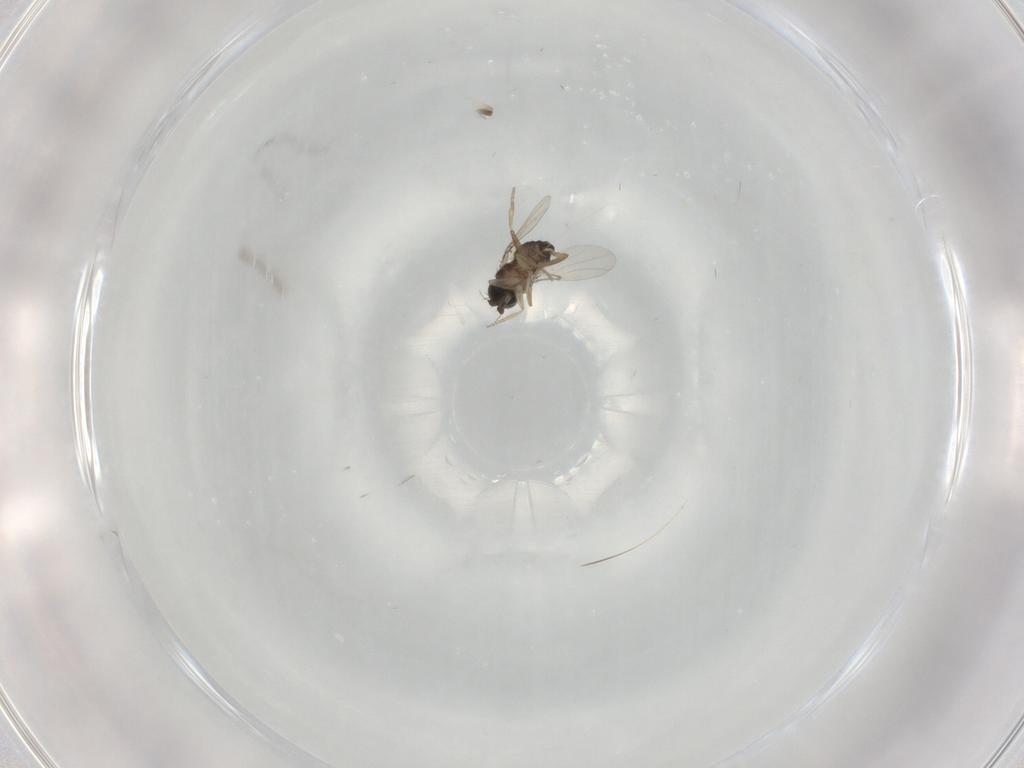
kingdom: Animalia
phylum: Arthropoda
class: Insecta
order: Diptera
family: Phoridae
